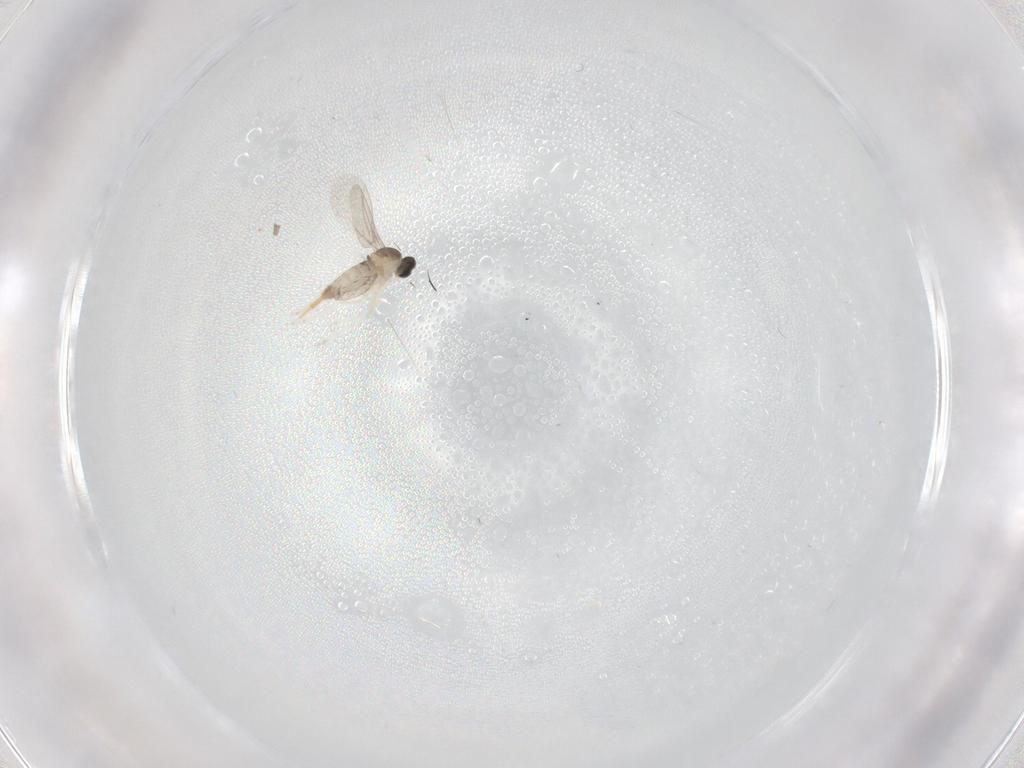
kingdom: Animalia
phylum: Arthropoda
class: Insecta
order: Diptera
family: Cecidomyiidae
